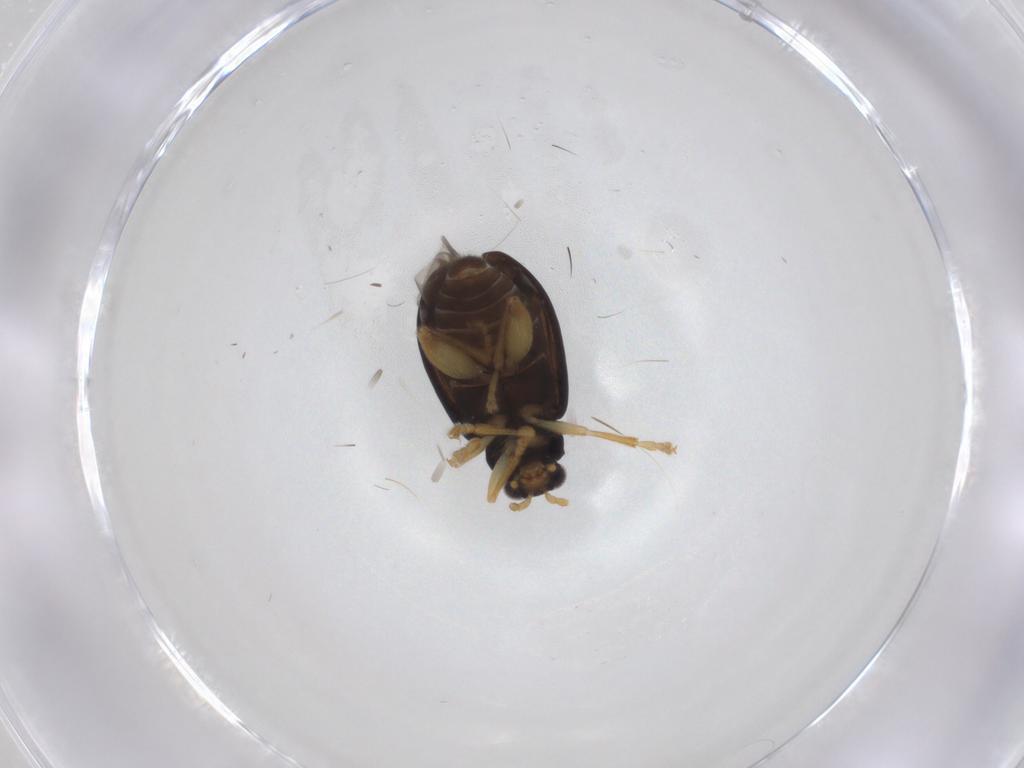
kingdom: Animalia
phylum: Arthropoda
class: Insecta
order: Coleoptera
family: Chrysomelidae
